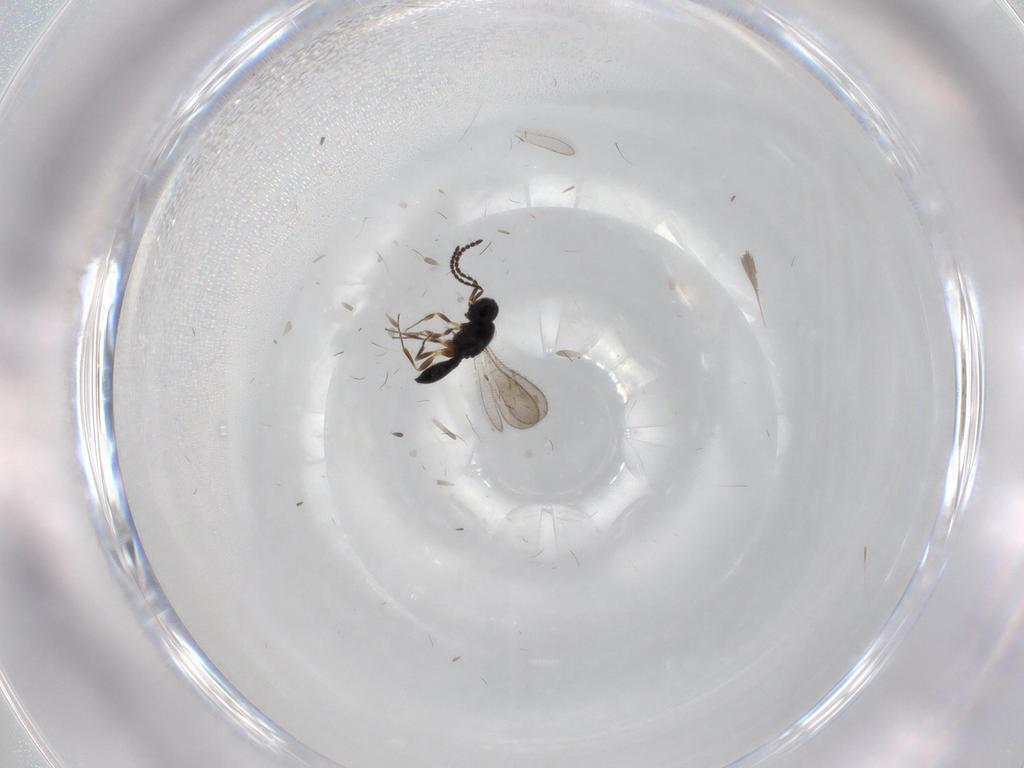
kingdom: Animalia
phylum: Arthropoda
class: Insecta
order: Hymenoptera
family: Scelionidae
